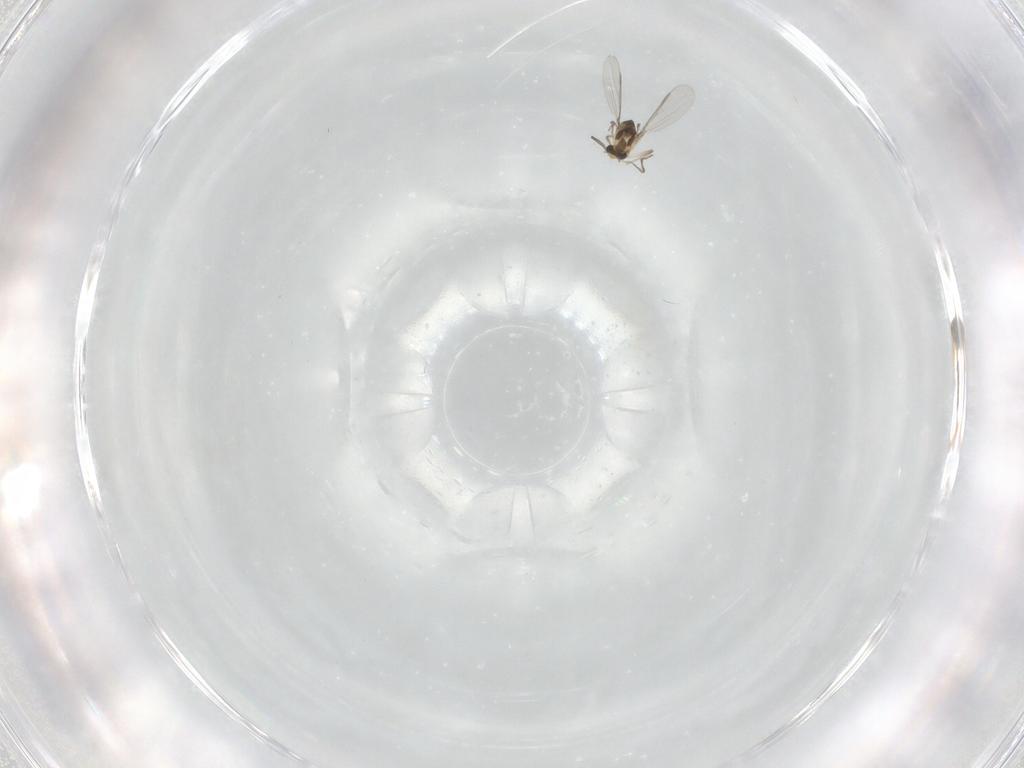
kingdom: Animalia
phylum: Arthropoda
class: Insecta
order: Diptera
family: Chironomidae
